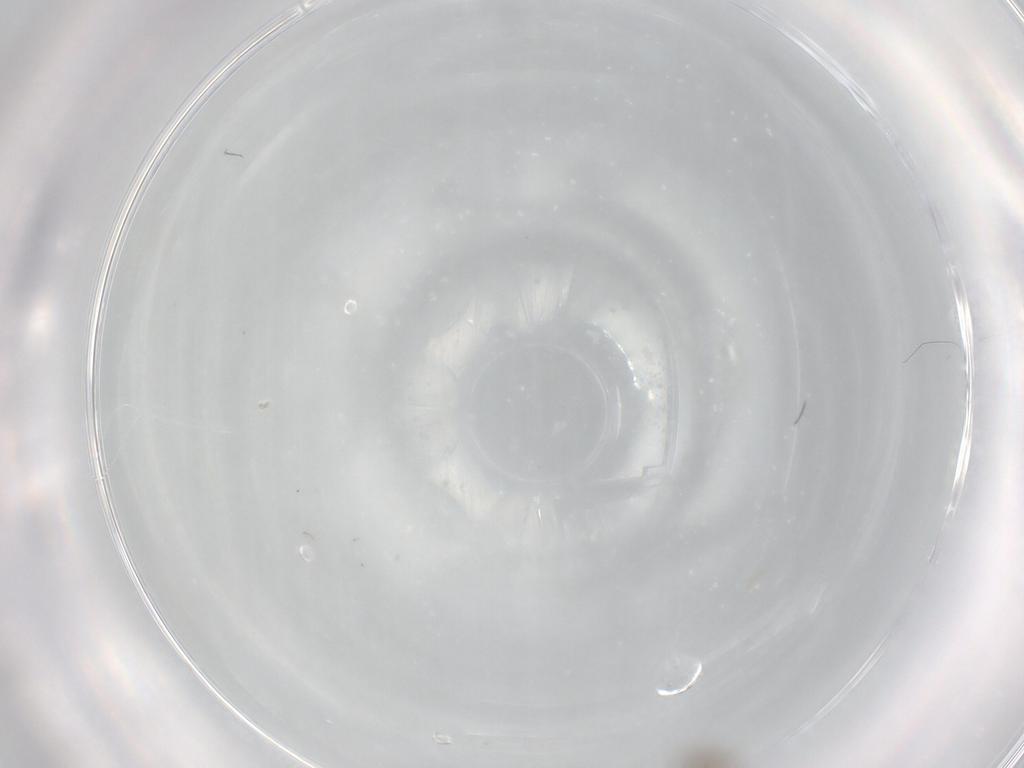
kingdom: Animalia
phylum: Arthropoda
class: Insecta
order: Diptera
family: Cecidomyiidae
